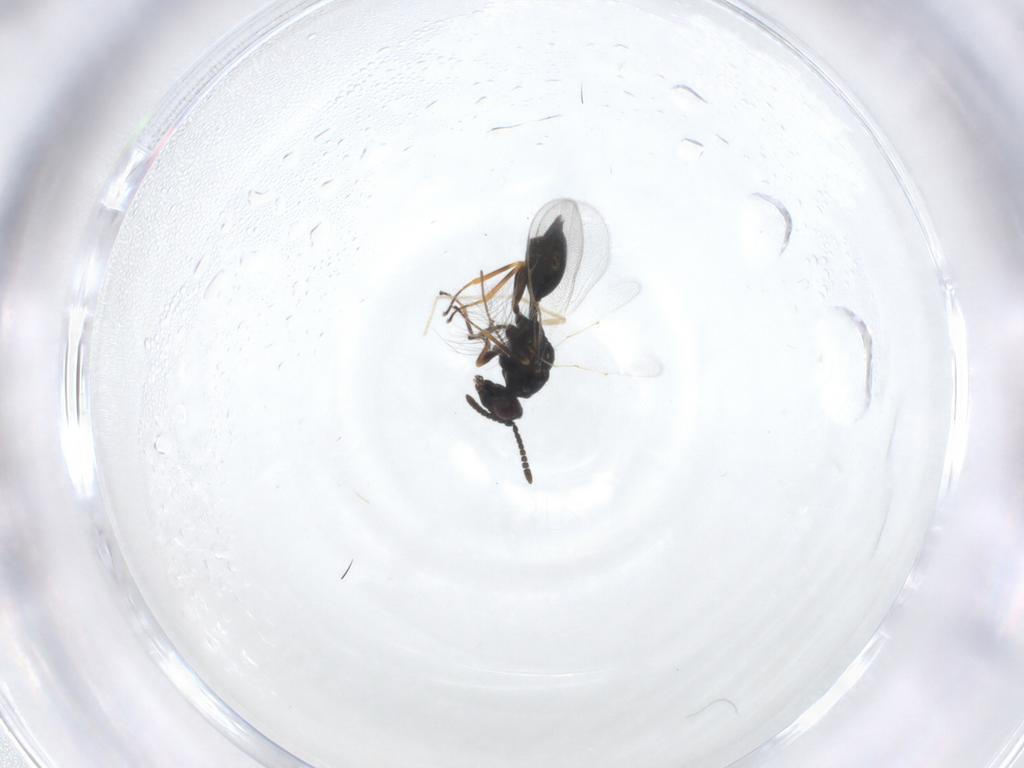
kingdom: Animalia
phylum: Arthropoda
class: Insecta
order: Hymenoptera
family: Pteromalidae
